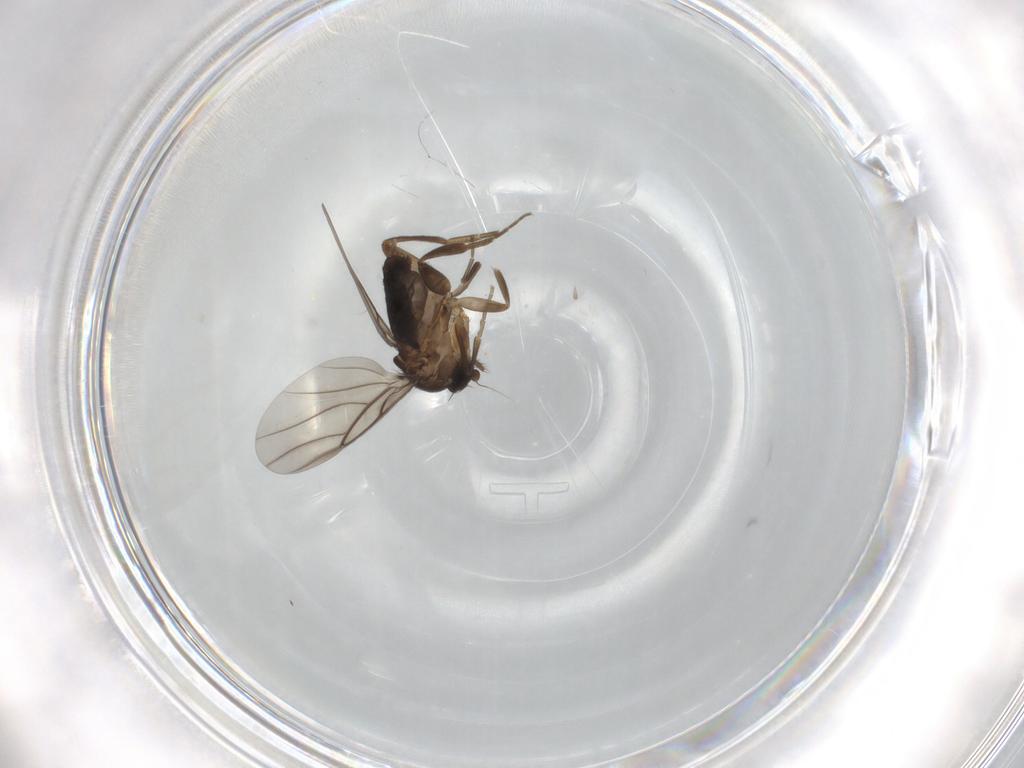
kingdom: Animalia
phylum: Arthropoda
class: Insecta
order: Diptera
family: Phoridae
